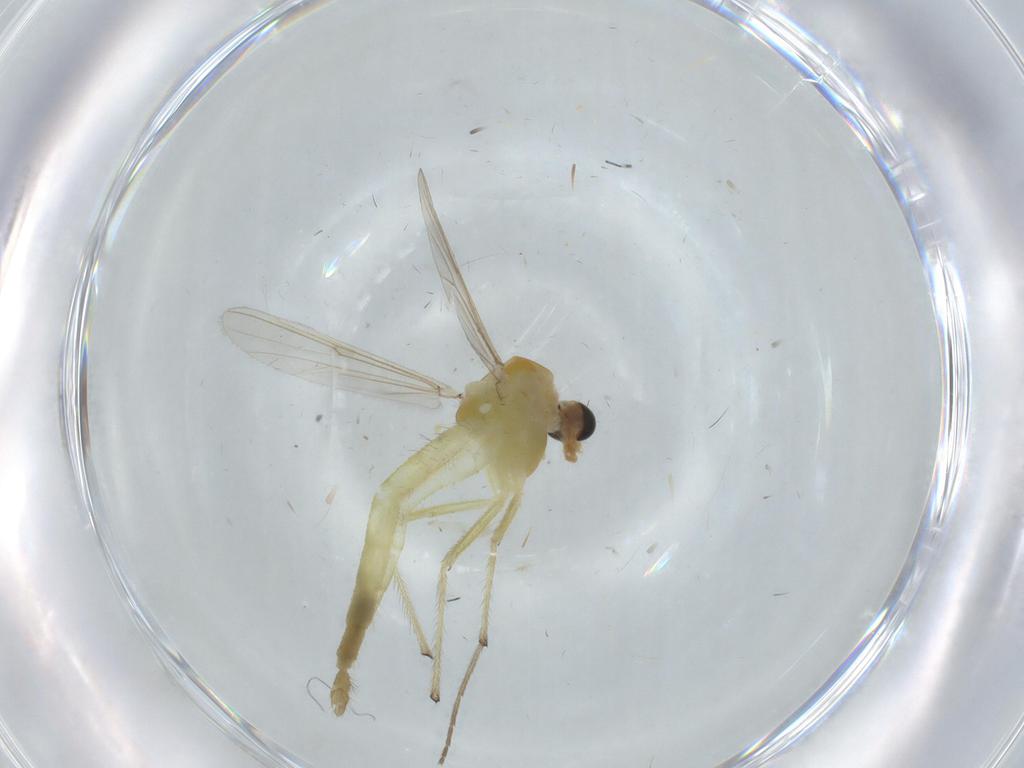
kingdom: Animalia
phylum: Arthropoda
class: Insecta
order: Diptera
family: Chironomidae
